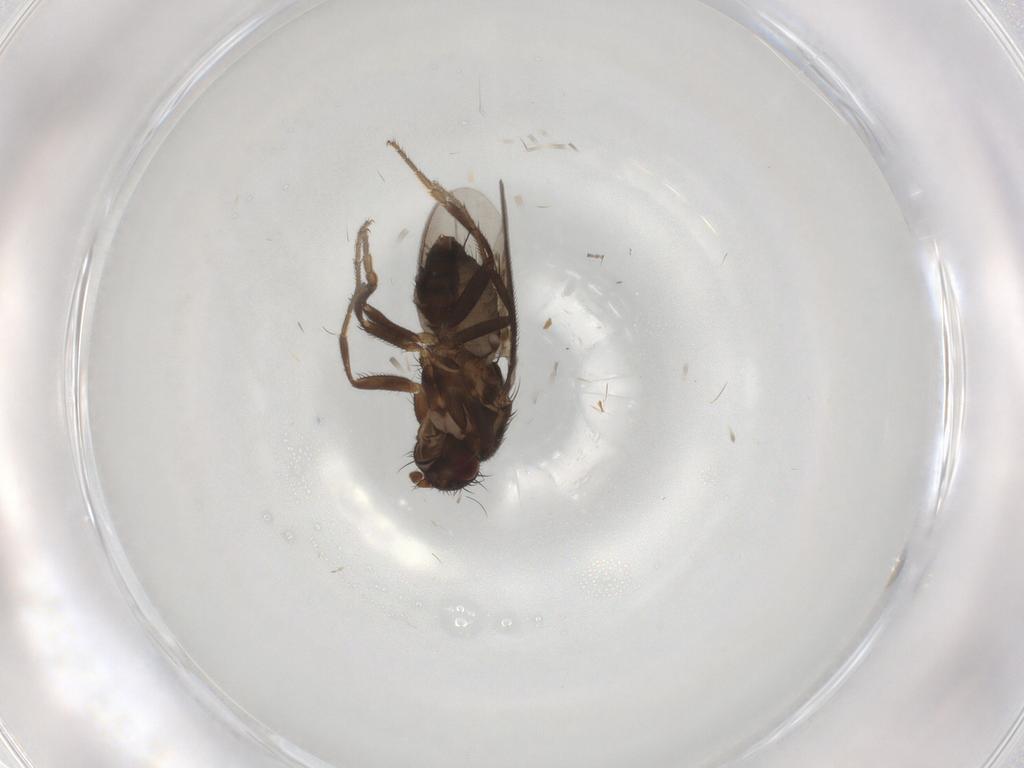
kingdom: Animalia
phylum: Arthropoda
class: Insecta
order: Diptera
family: Sphaeroceridae
